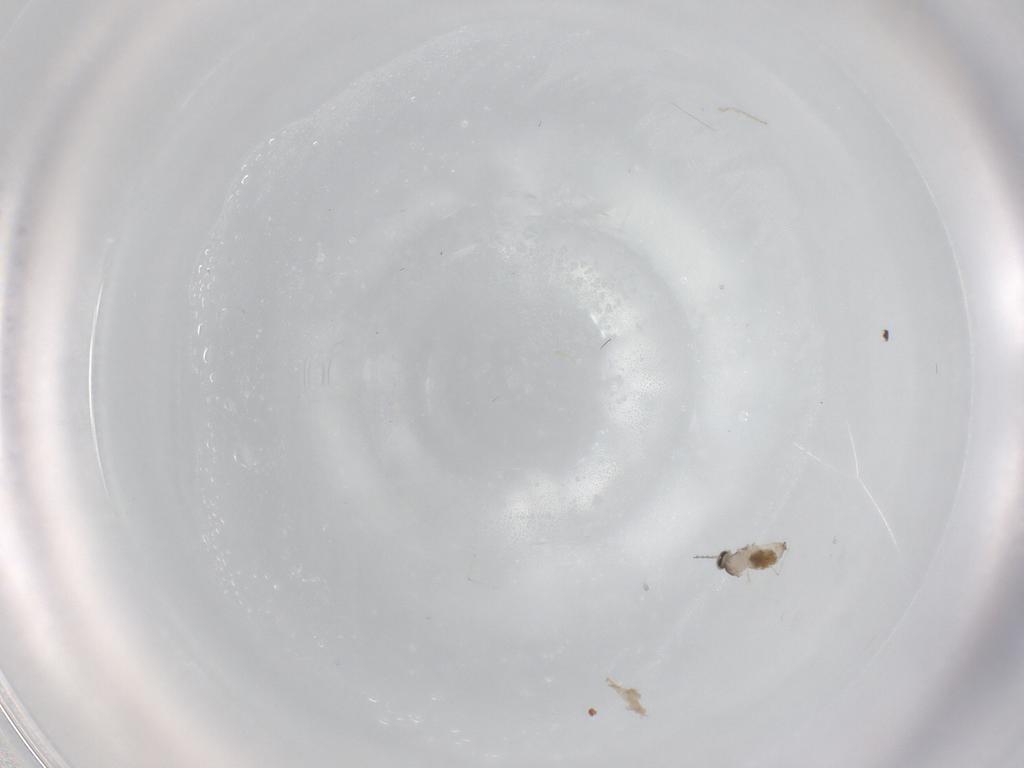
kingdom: Animalia
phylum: Arthropoda
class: Insecta
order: Diptera
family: Cecidomyiidae
